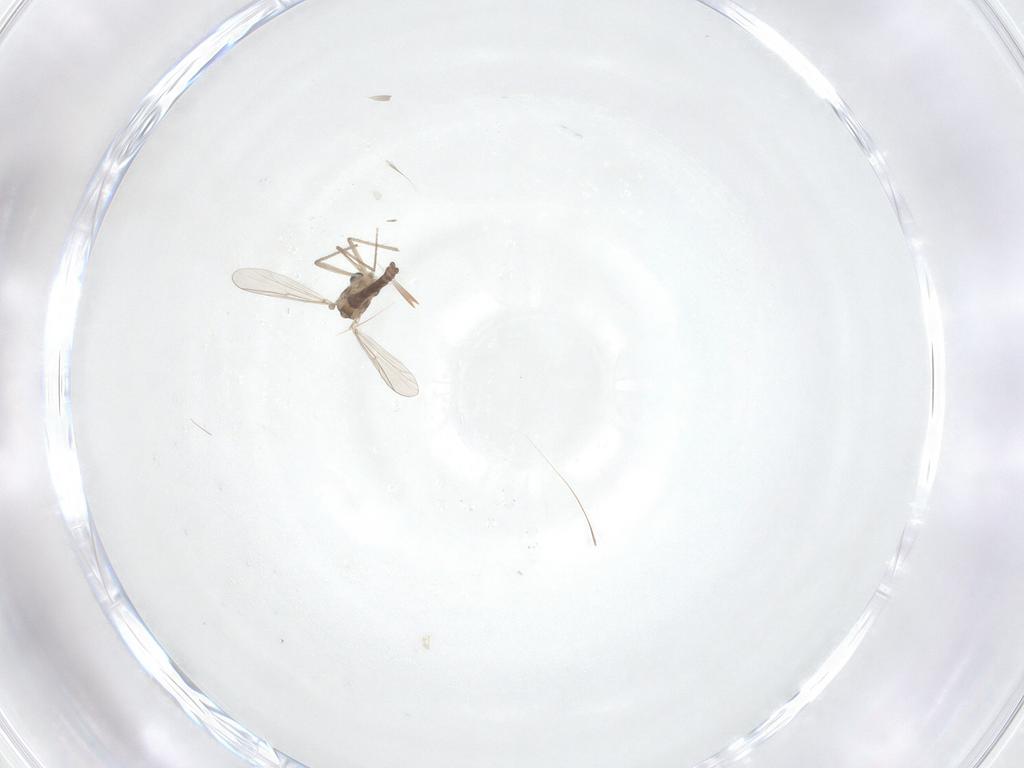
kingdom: Animalia
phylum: Arthropoda
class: Insecta
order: Diptera
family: Chironomidae
